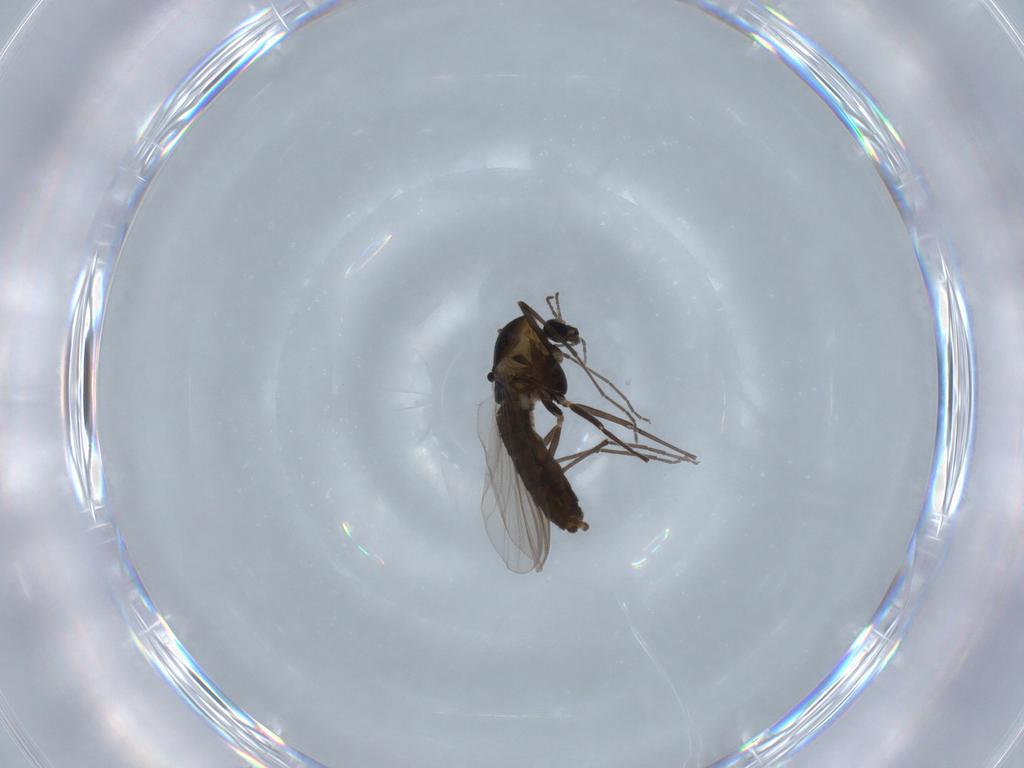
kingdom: Animalia
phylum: Arthropoda
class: Insecta
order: Diptera
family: Chironomidae
